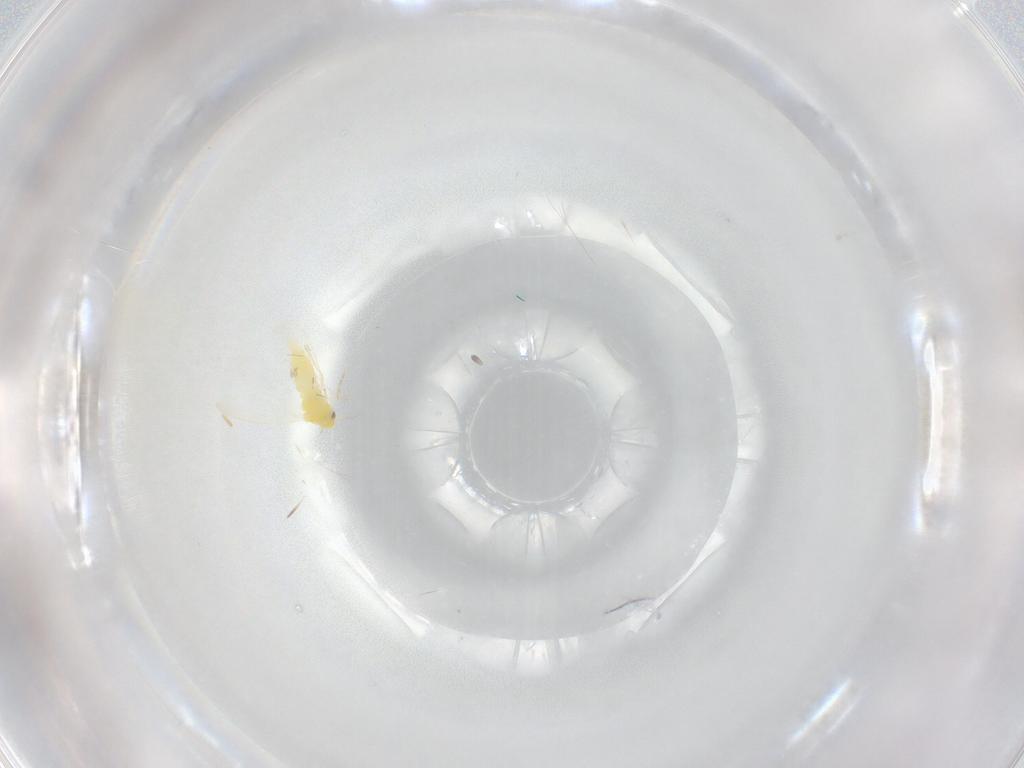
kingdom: Animalia
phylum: Arthropoda
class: Insecta
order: Hemiptera
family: Aleyrodidae
